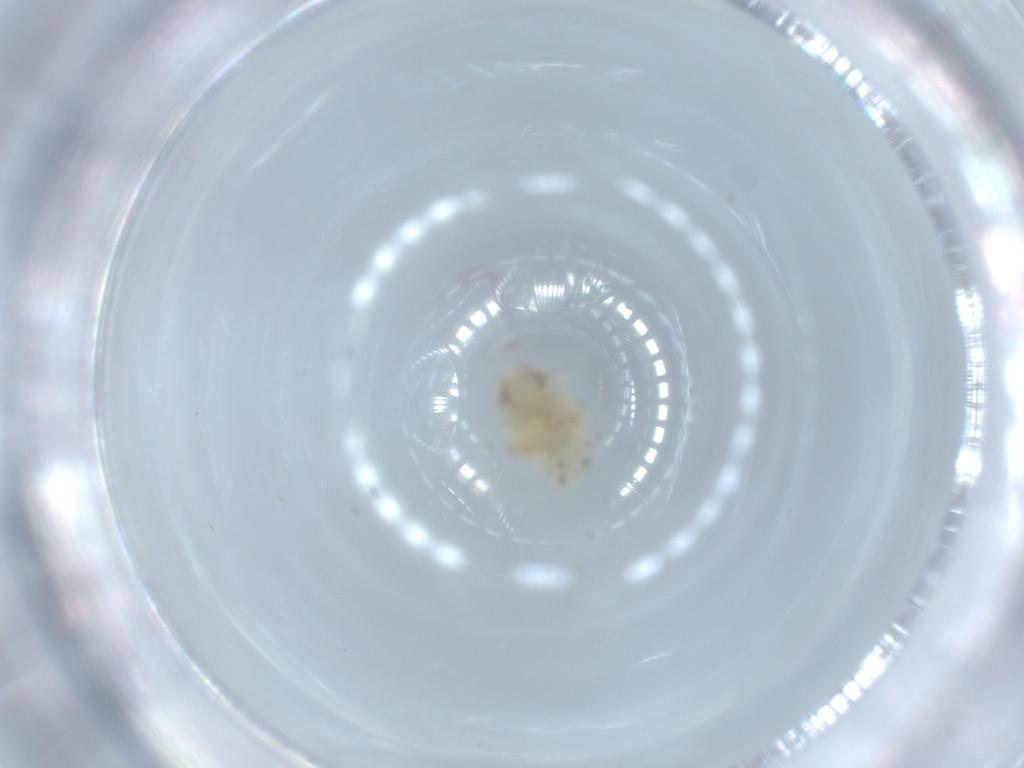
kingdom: Animalia
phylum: Arthropoda
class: Insecta
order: Hemiptera
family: Nogodinidae
